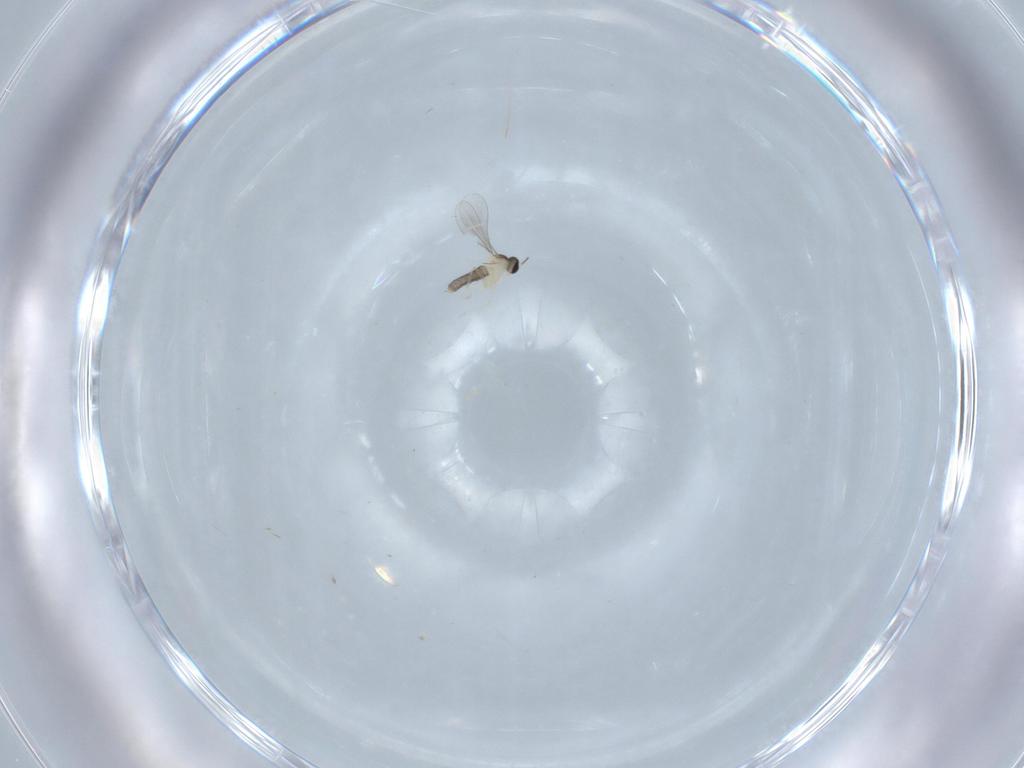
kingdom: Animalia
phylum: Arthropoda
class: Insecta
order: Diptera
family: Cecidomyiidae
